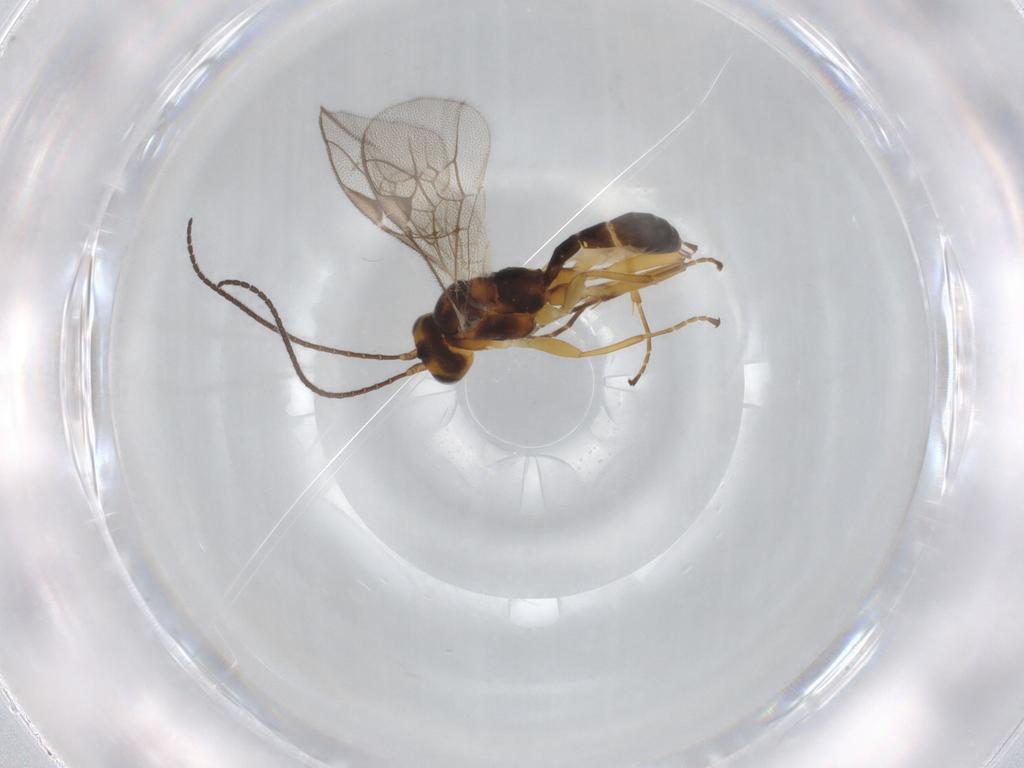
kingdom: Animalia
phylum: Arthropoda
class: Insecta
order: Hymenoptera
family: Ichneumonidae
